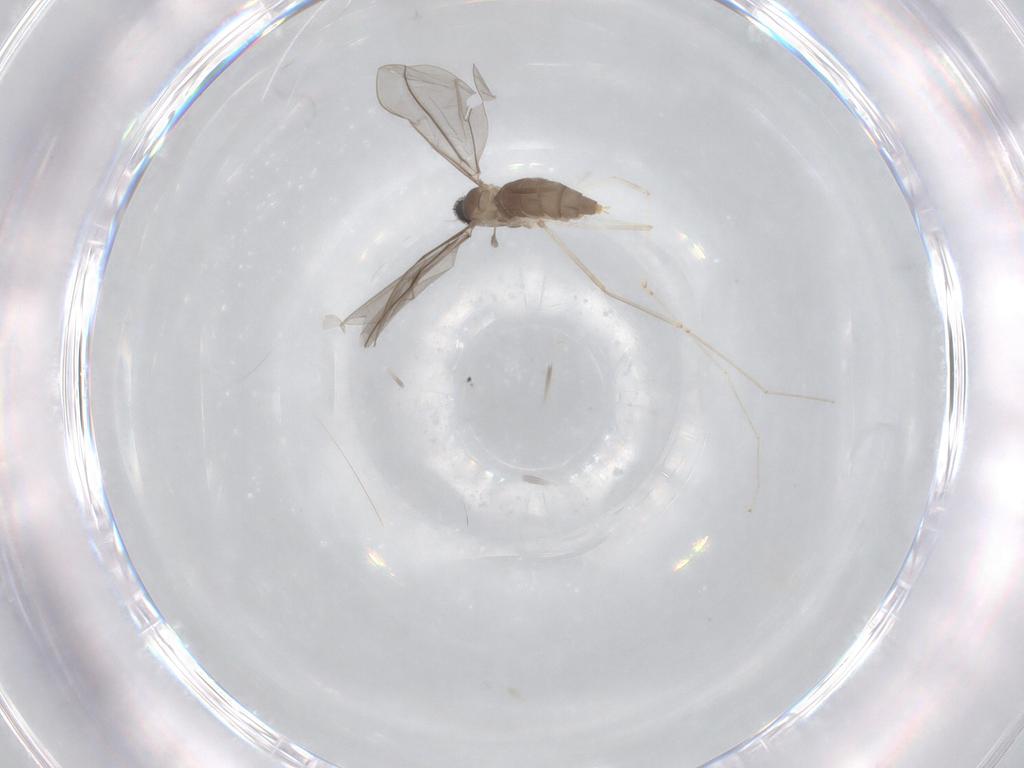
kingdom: Animalia
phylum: Arthropoda
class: Insecta
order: Diptera
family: Cecidomyiidae
